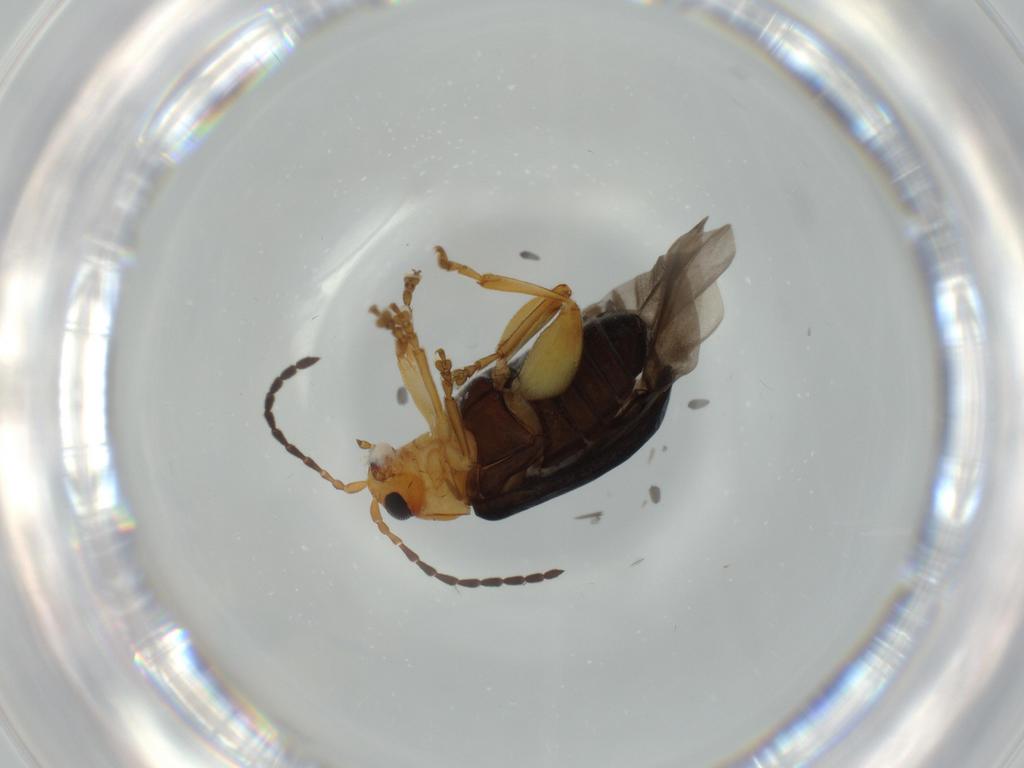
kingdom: Animalia
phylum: Arthropoda
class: Insecta
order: Coleoptera
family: Chrysomelidae
